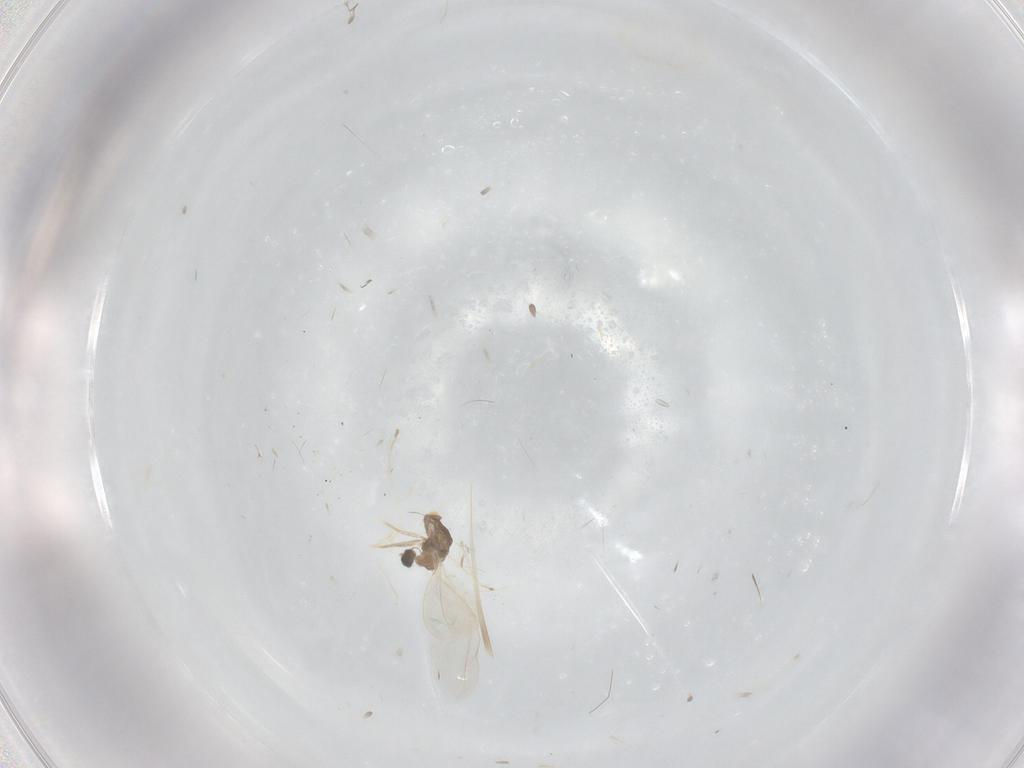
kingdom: Animalia
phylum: Arthropoda
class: Insecta
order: Diptera
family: Cecidomyiidae
